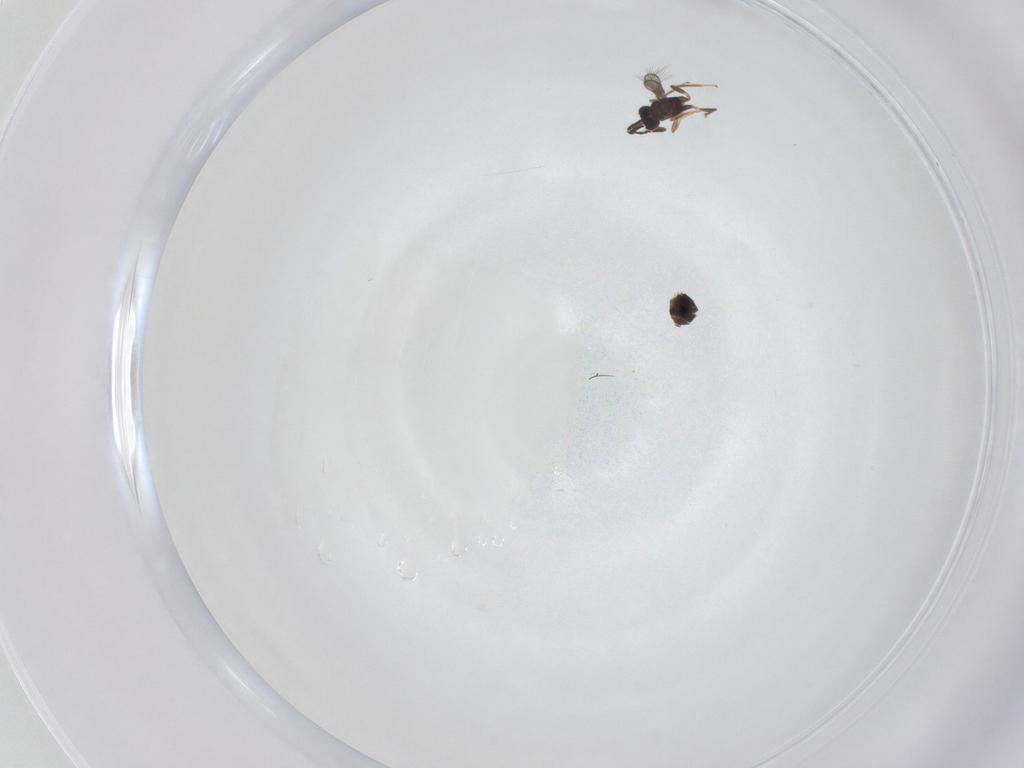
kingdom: Animalia
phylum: Arthropoda
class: Insecta
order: Hymenoptera
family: Mymaridae
